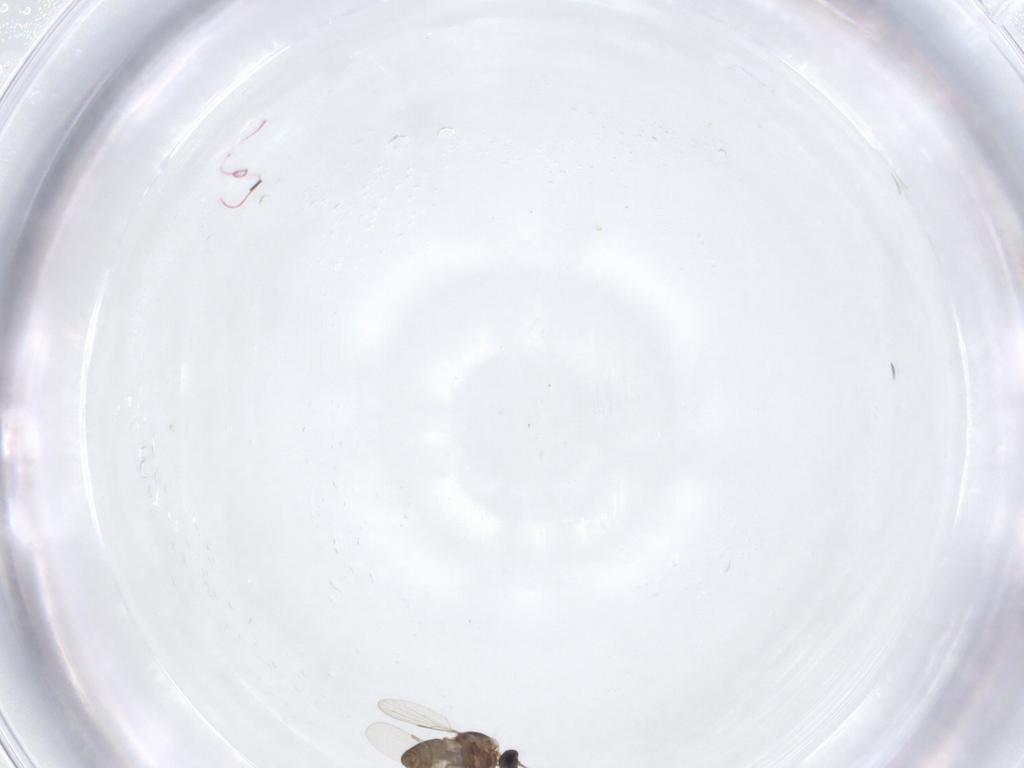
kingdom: Animalia
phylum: Arthropoda
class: Insecta
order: Diptera
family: Ceratopogonidae
